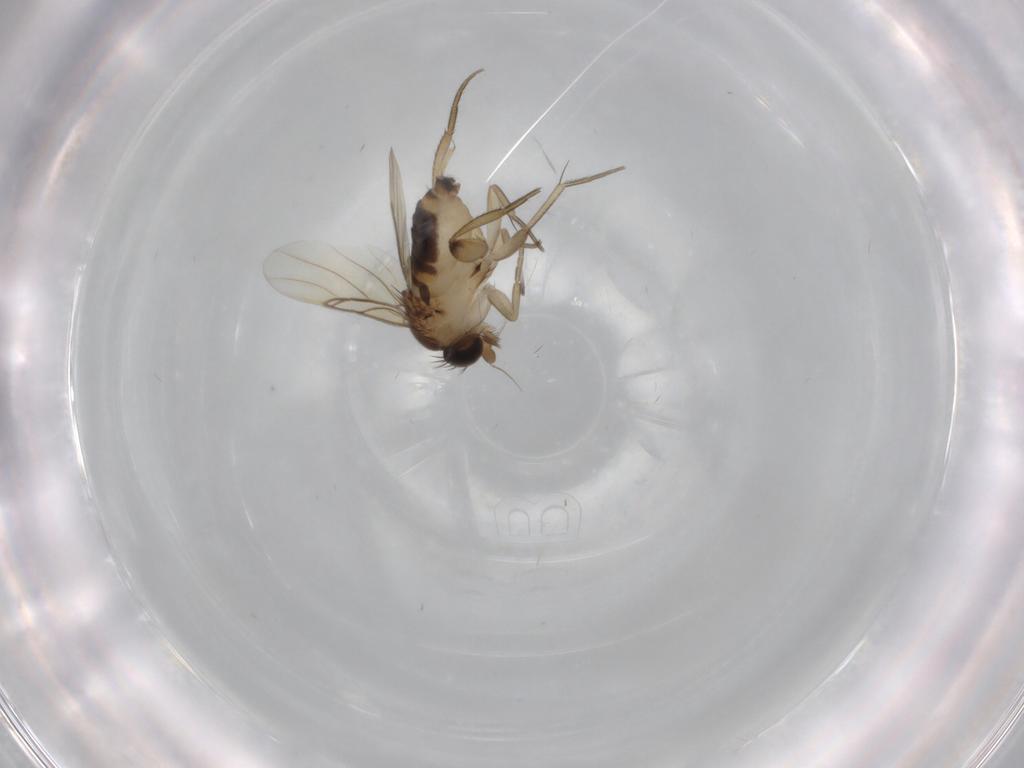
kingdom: Animalia
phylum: Arthropoda
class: Insecta
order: Diptera
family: Phoridae
